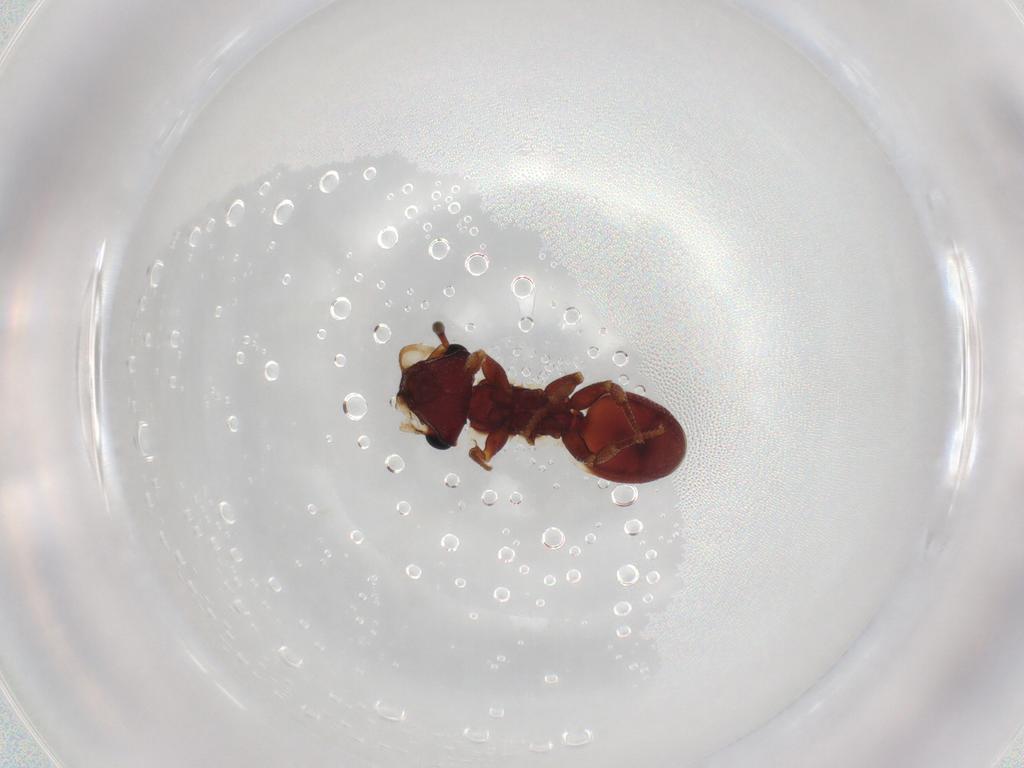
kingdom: Animalia
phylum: Arthropoda
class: Insecta
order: Hymenoptera
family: Formicidae
